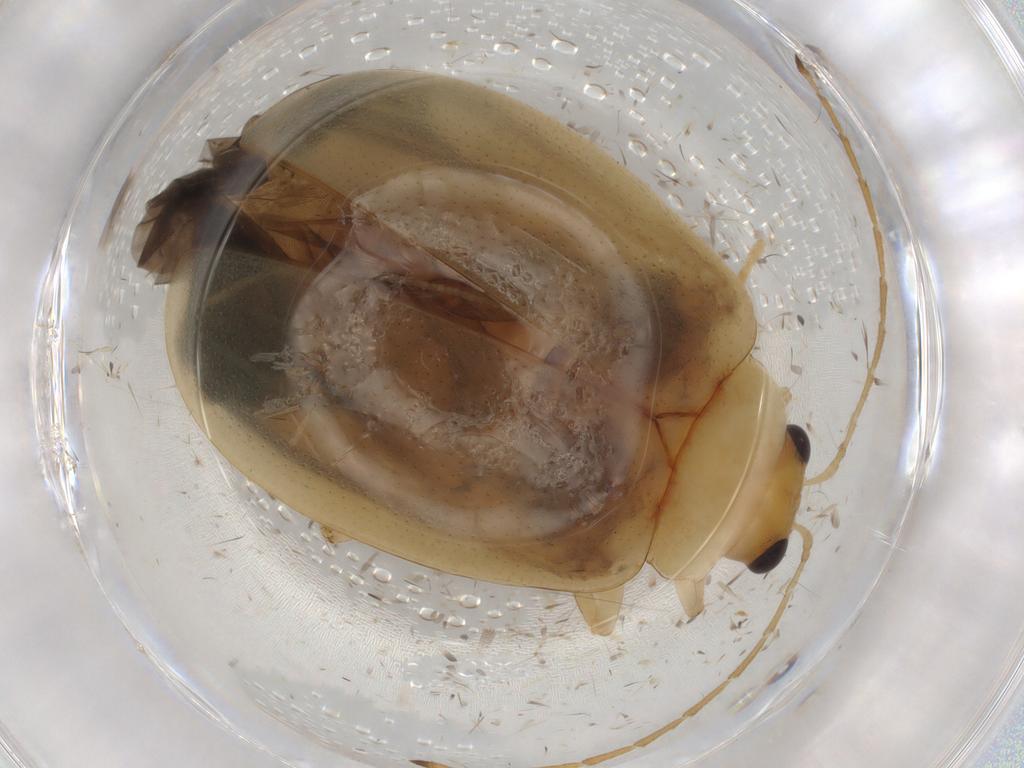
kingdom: Animalia
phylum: Arthropoda
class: Insecta
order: Coleoptera
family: Chrysomelidae
